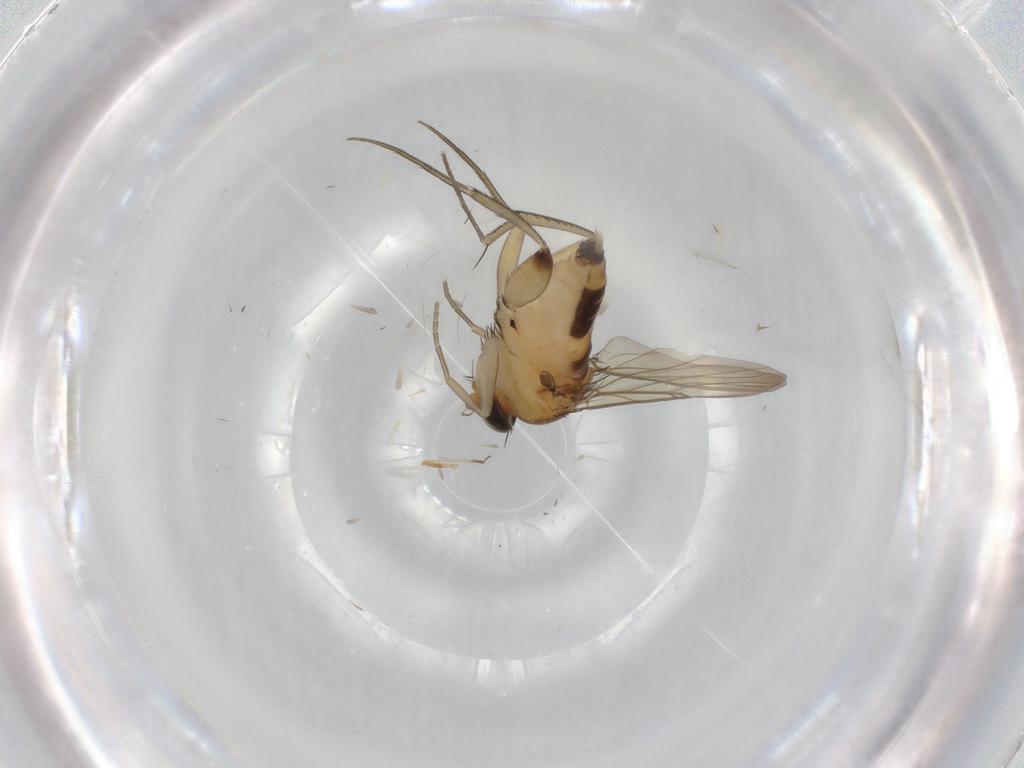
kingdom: Animalia
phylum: Arthropoda
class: Insecta
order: Diptera
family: Phoridae
